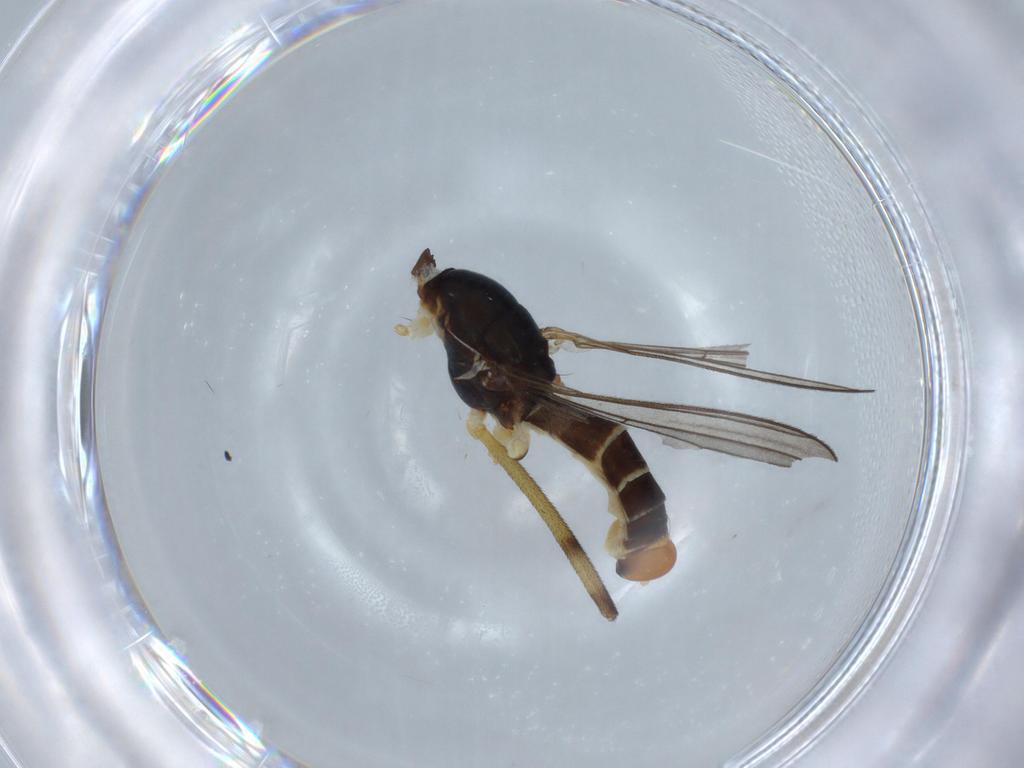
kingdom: Animalia
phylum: Arthropoda
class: Insecta
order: Diptera
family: Micropezidae
